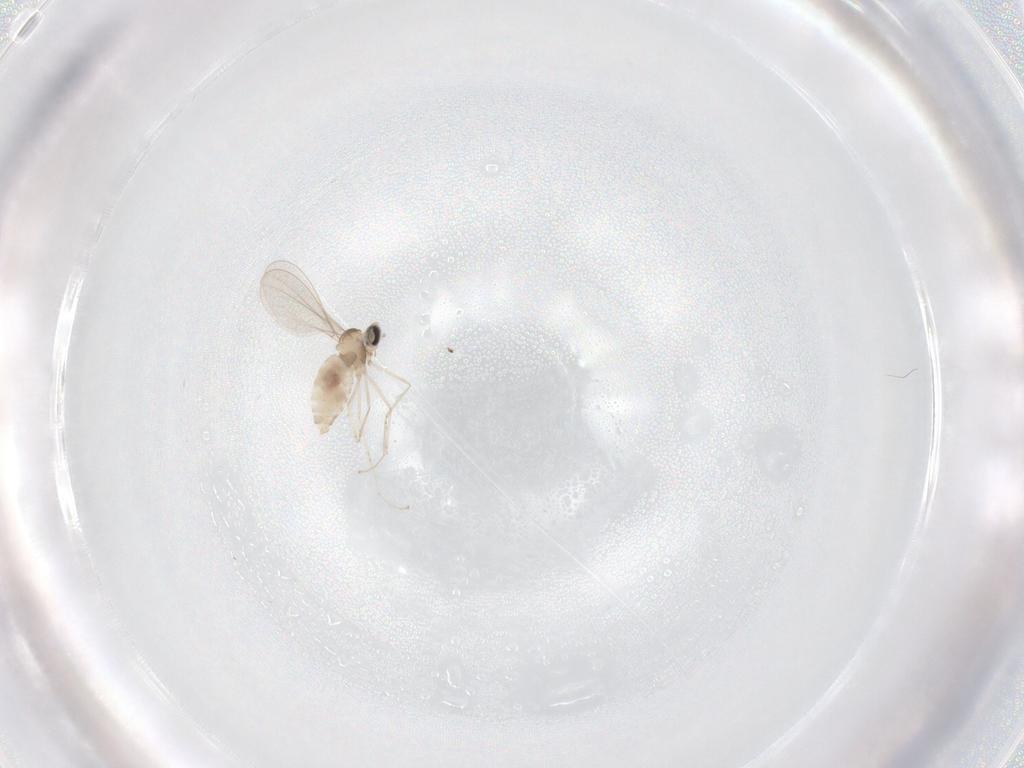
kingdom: Animalia
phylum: Arthropoda
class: Insecta
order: Diptera
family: Cecidomyiidae
